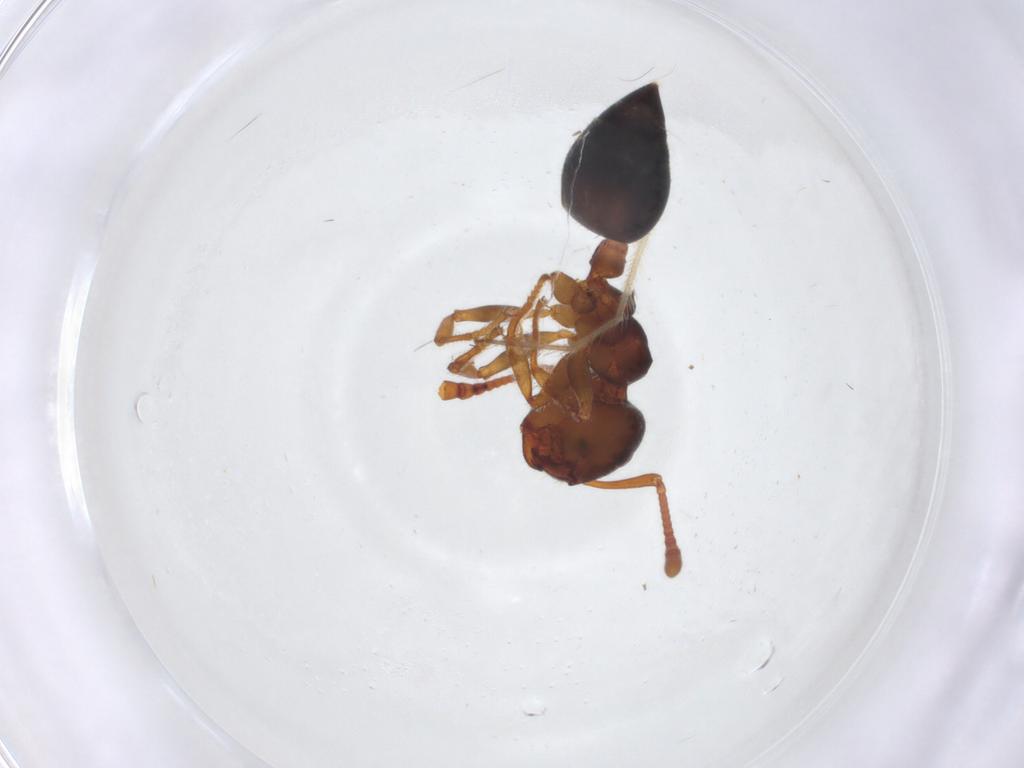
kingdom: Animalia
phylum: Arthropoda
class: Insecta
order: Hymenoptera
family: Formicidae
